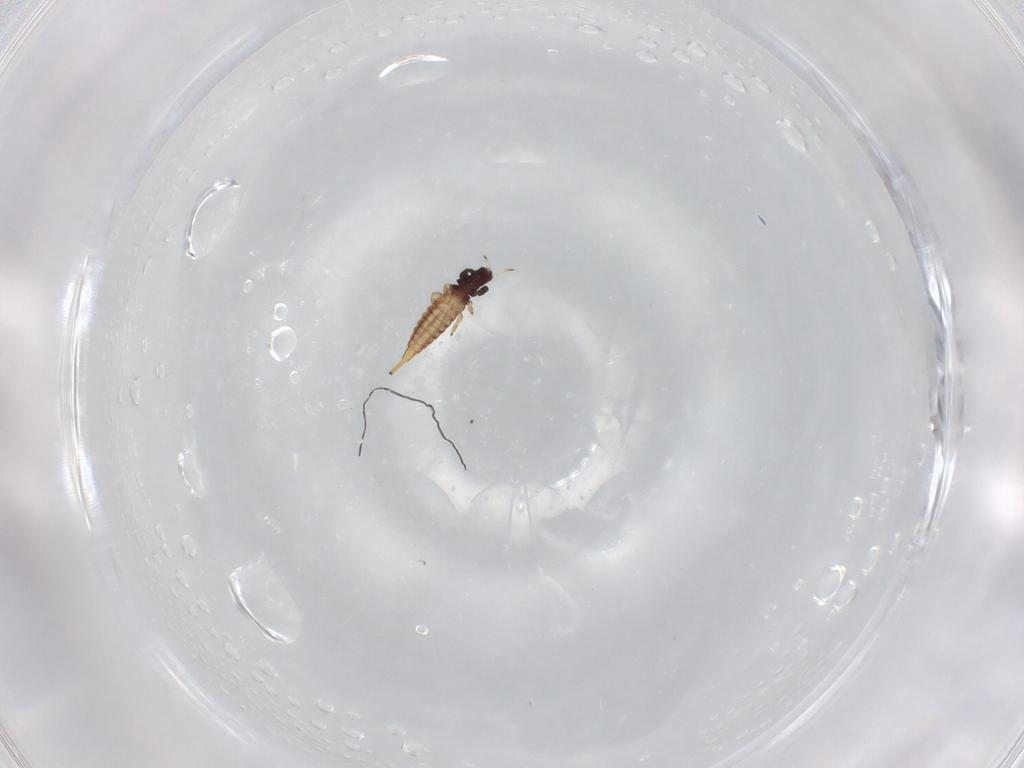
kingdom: Animalia
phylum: Arthropoda
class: Insecta
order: Thysanoptera
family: Phlaeothripidae
